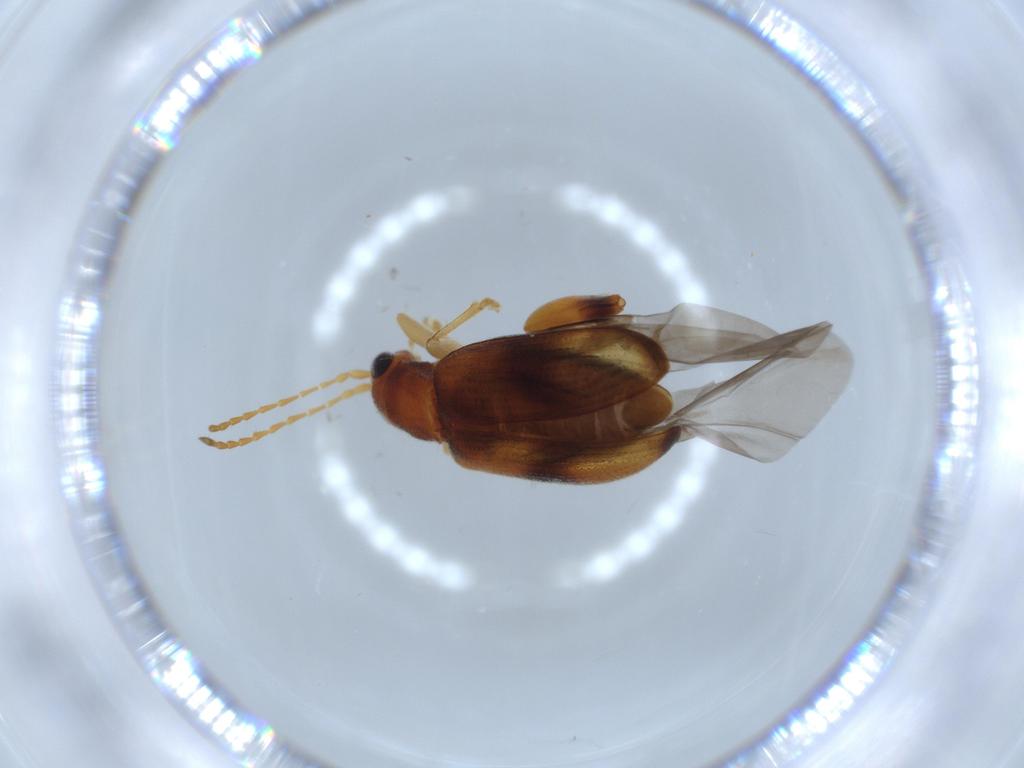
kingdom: Animalia
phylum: Arthropoda
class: Insecta
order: Coleoptera
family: Chrysomelidae
